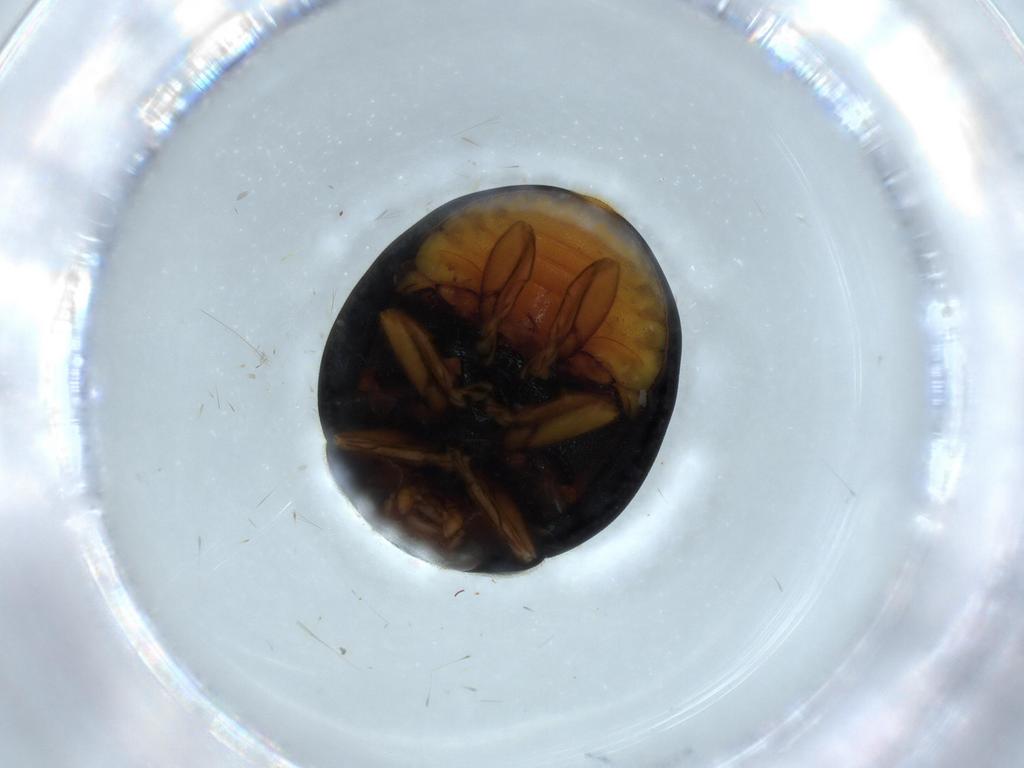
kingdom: Animalia
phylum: Arthropoda
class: Insecta
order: Coleoptera
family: Coccinellidae
